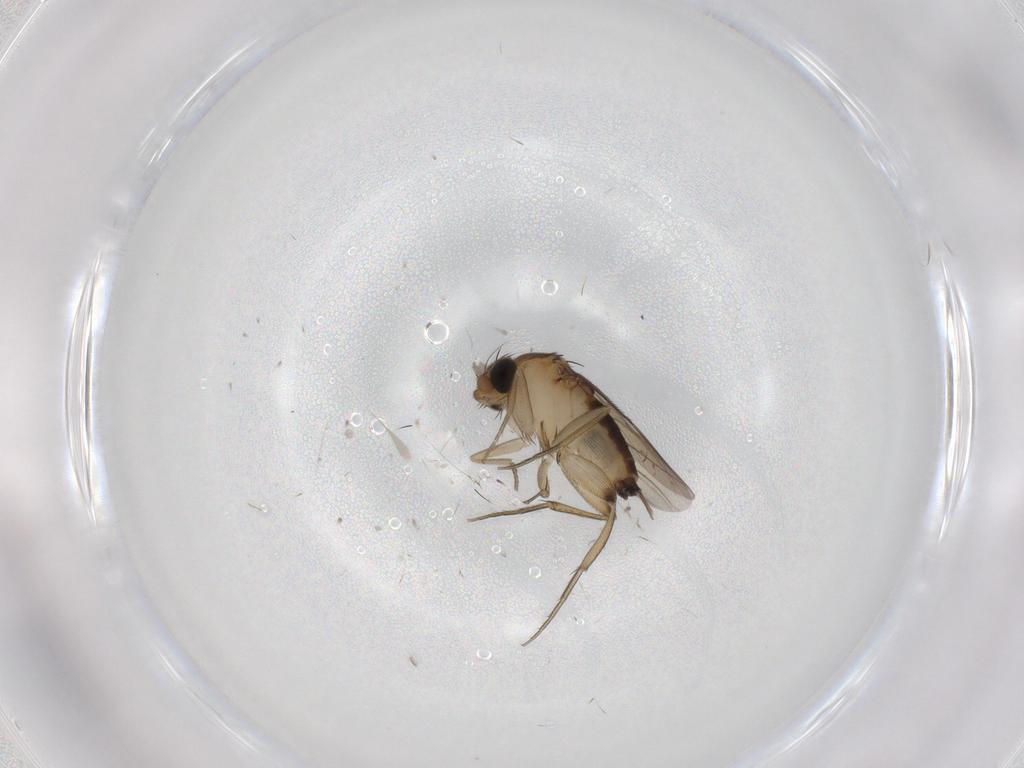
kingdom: Animalia
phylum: Arthropoda
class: Insecta
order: Diptera
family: Phoridae
